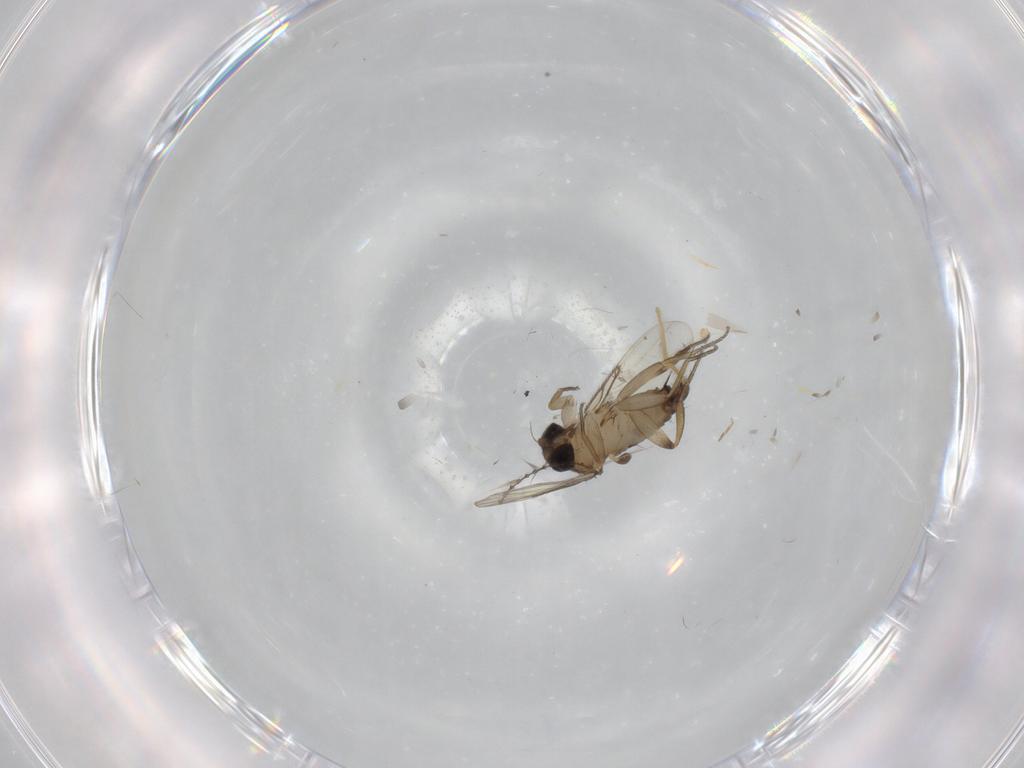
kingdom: Animalia
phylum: Arthropoda
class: Insecta
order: Diptera
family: Phoridae
